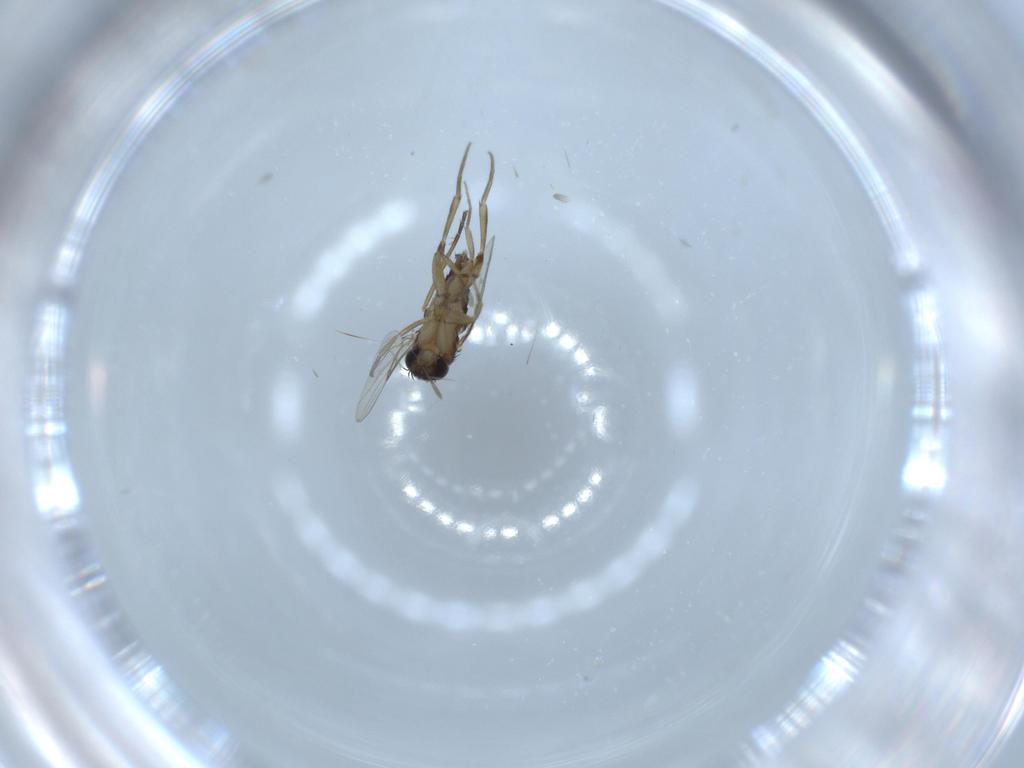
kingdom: Animalia
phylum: Arthropoda
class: Insecta
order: Diptera
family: Phoridae
